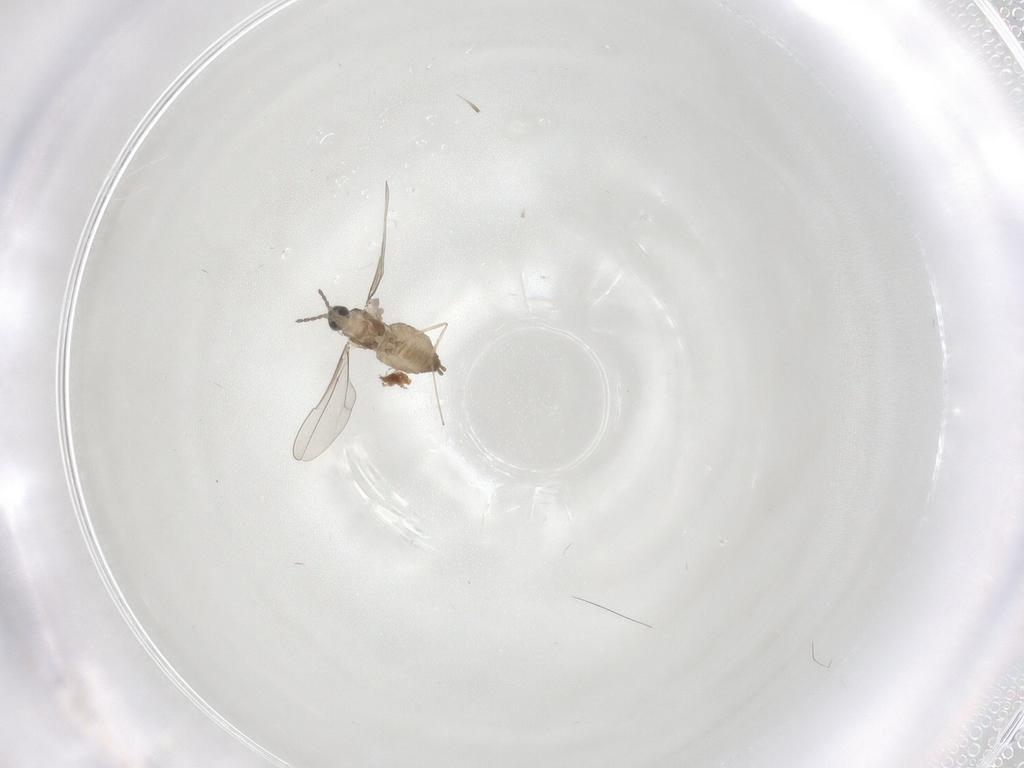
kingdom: Animalia
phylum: Arthropoda
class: Insecta
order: Diptera
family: Cecidomyiidae
